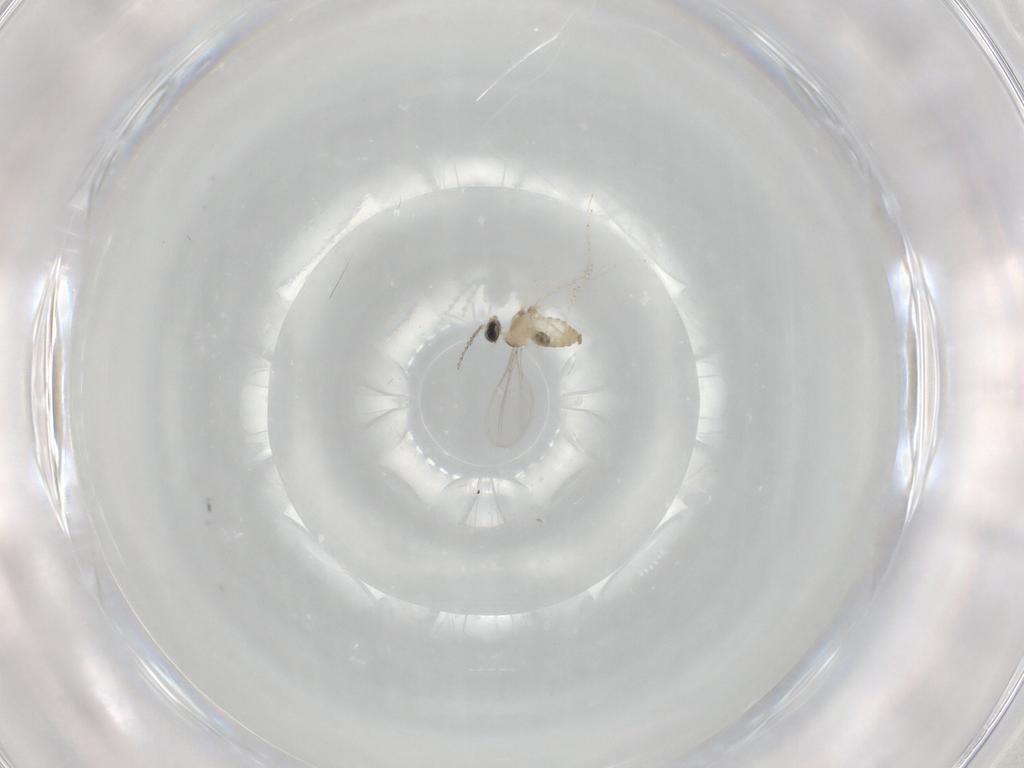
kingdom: Animalia
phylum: Arthropoda
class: Insecta
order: Diptera
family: Cecidomyiidae
